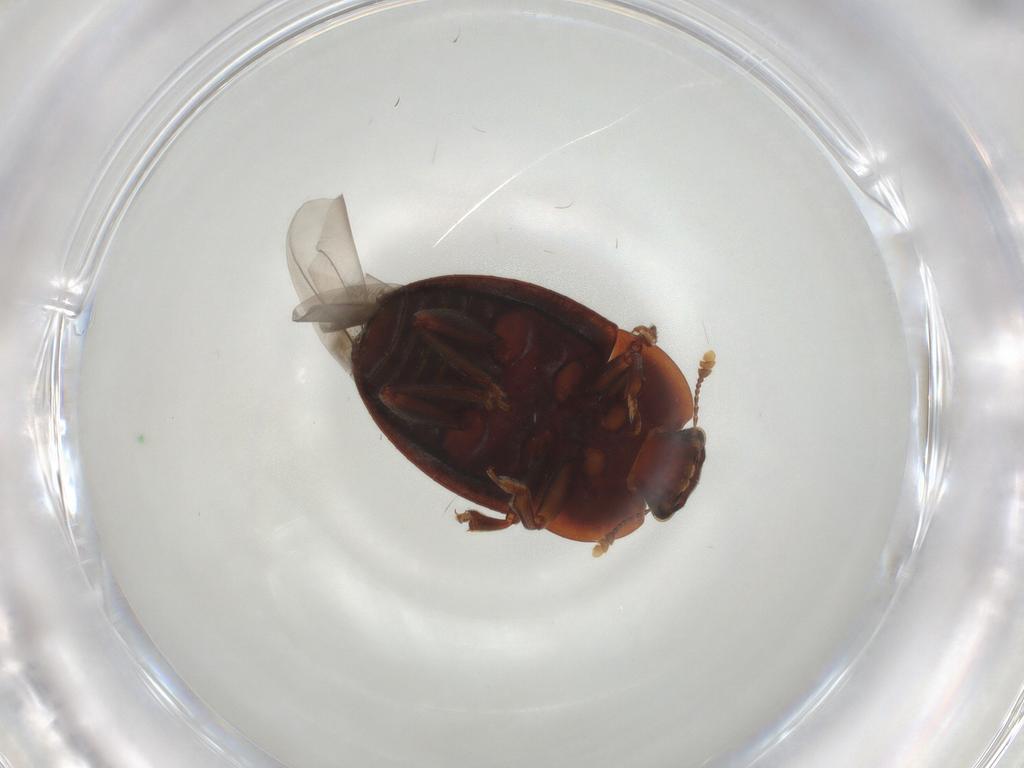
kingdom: Animalia
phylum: Arthropoda
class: Insecta
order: Coleoptera
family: Nitidulidae
